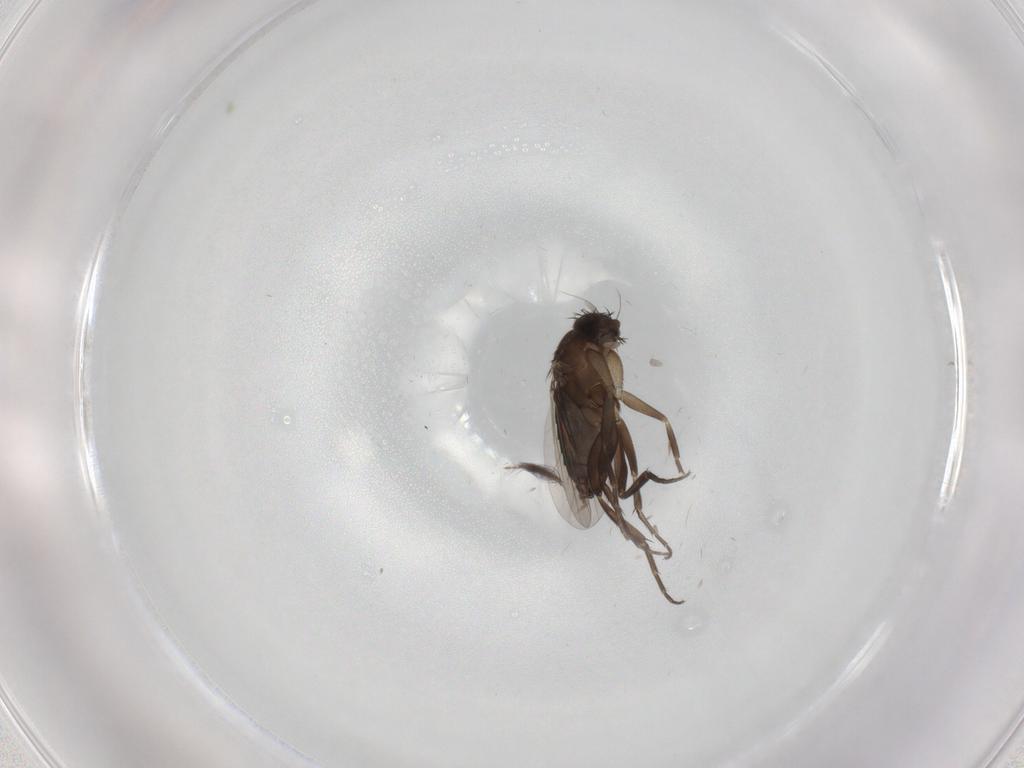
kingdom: Animalia
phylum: Arthropoda
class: Insecta
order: Diptera
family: Cecidomyiidae
